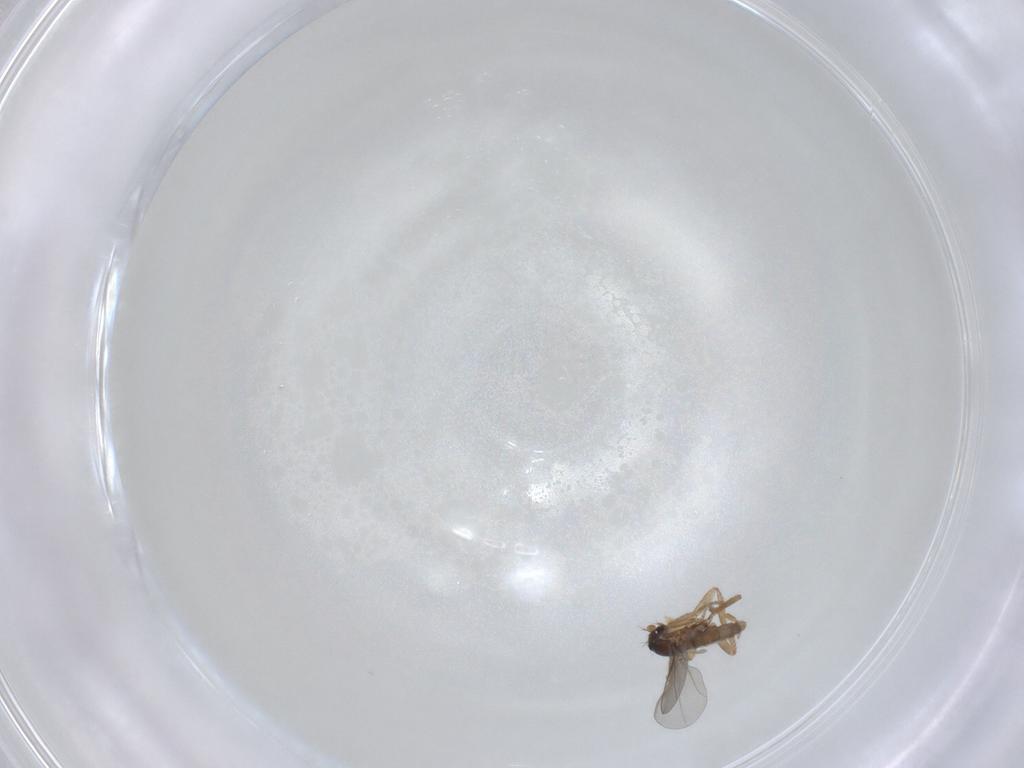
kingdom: Animalia
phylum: Arthropoda
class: Insecta
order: Diptera
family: Phoridae
